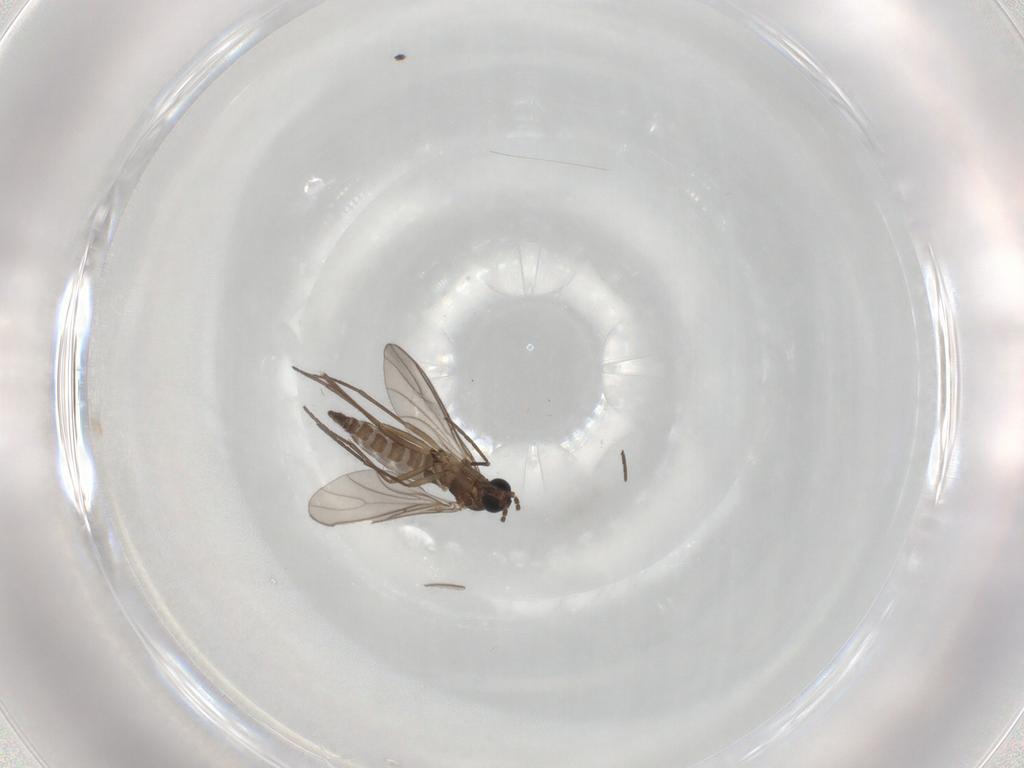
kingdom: Animalia
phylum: Arthropoda
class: Insecta
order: Diptera
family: Sciaridae
